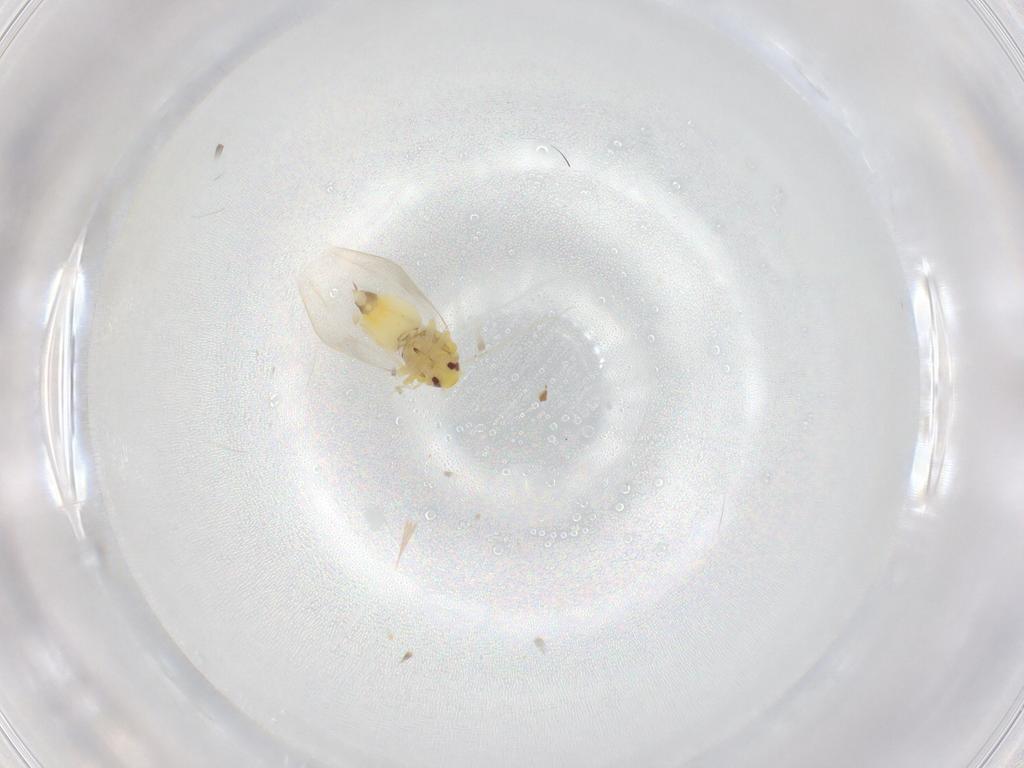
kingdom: Animalia
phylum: Arthropoda
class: Insecta
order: Hemiptera
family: Aleyrodidae
